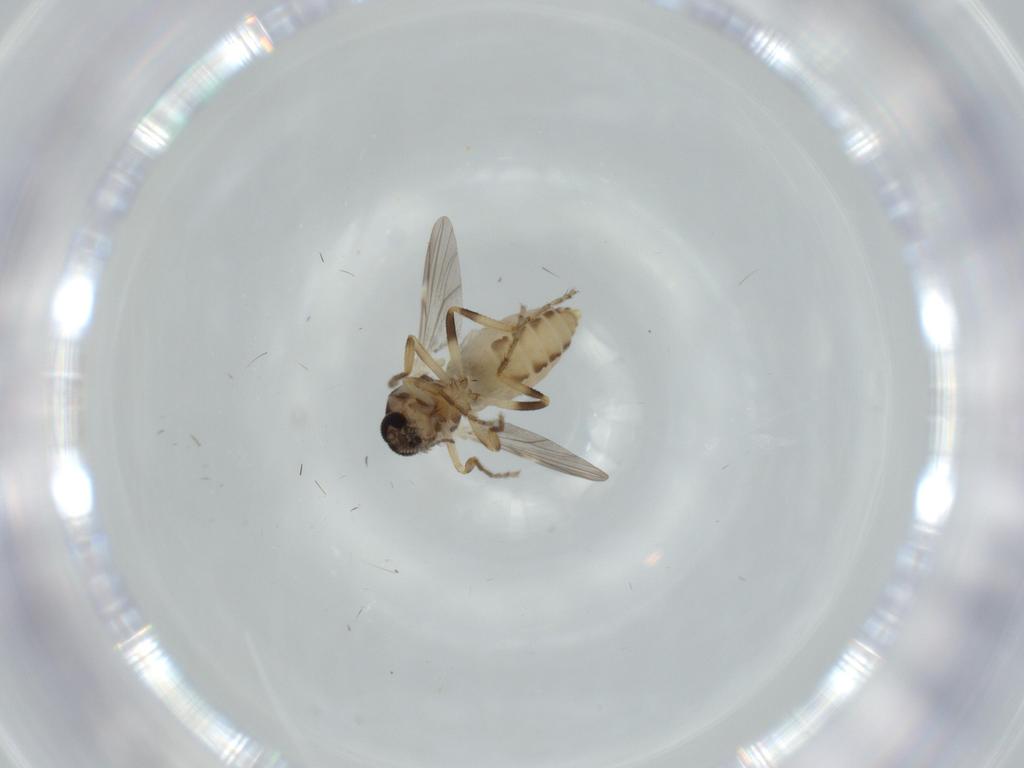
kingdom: Animalia
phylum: Arthropoda
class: Insecta
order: Diptera
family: Ceratopogonidae
